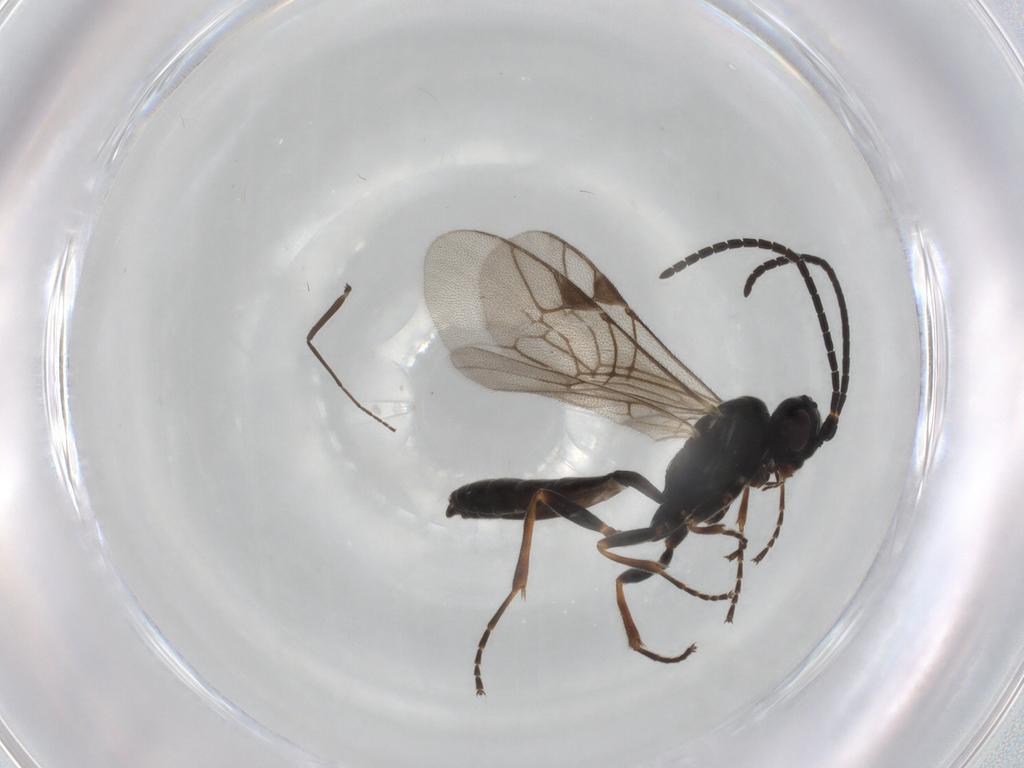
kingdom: Animalia
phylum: Arthropoda
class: Insecta
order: Hymenoptera
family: Ichneumonidae
